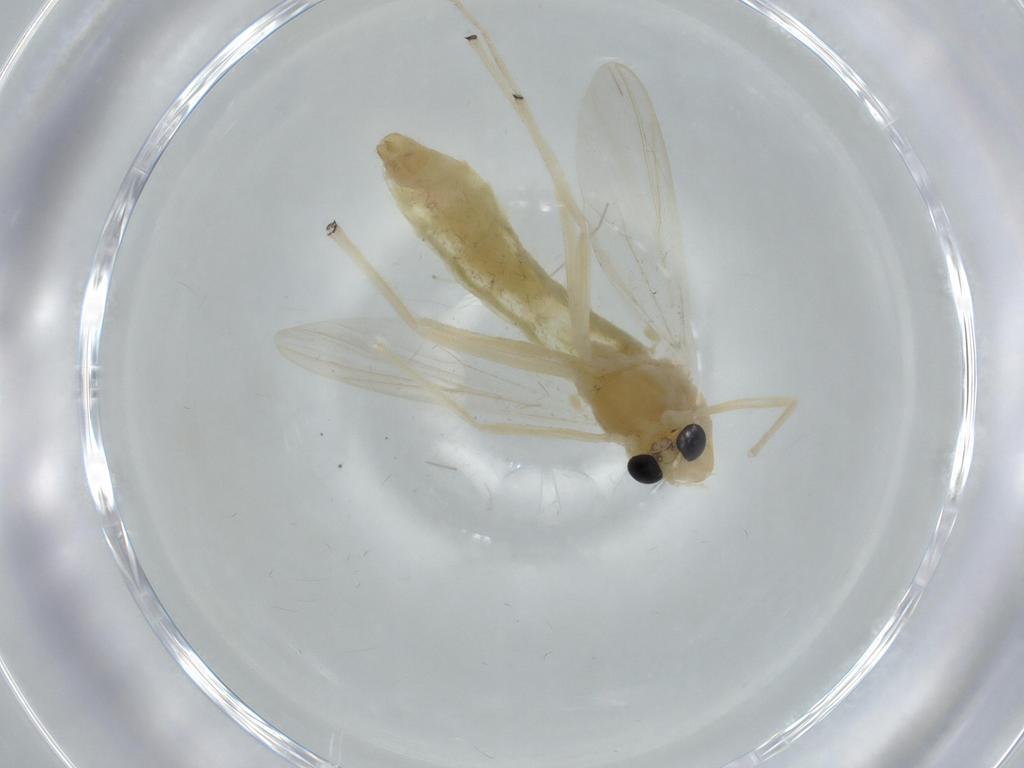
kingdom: Animalia
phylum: Arthropoda
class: Insecta
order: Diptera
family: Chironomidae
